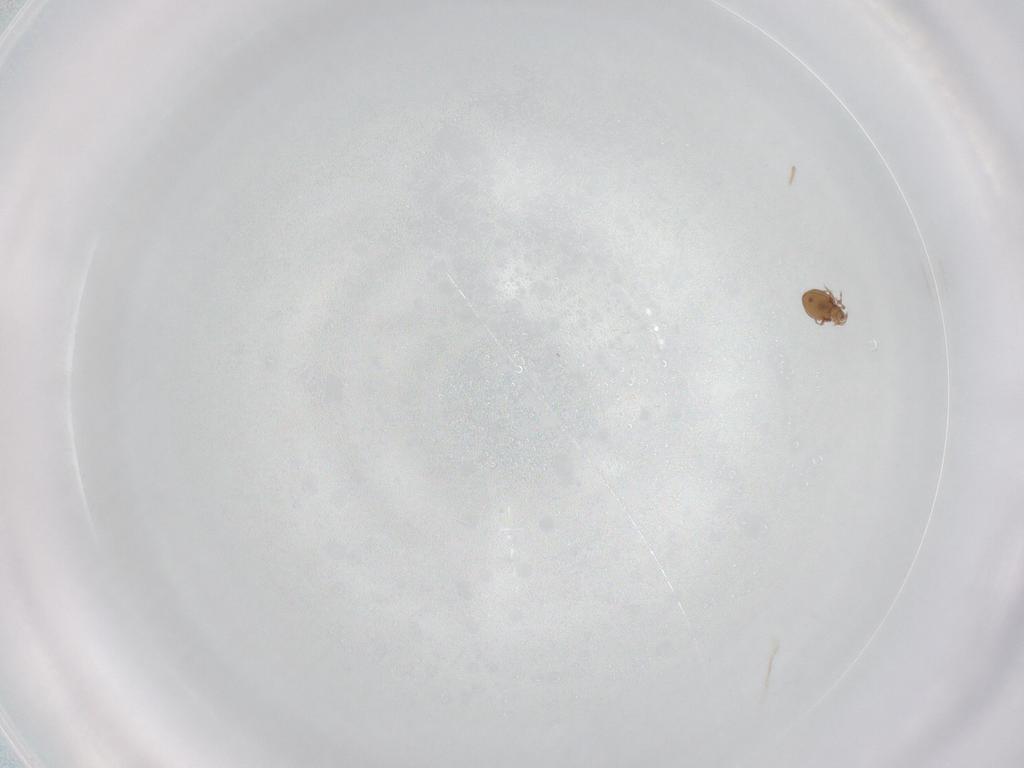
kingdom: Animalia
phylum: Arthropoda
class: Arachnida
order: Sarcoptiformes
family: Oribatulidae
